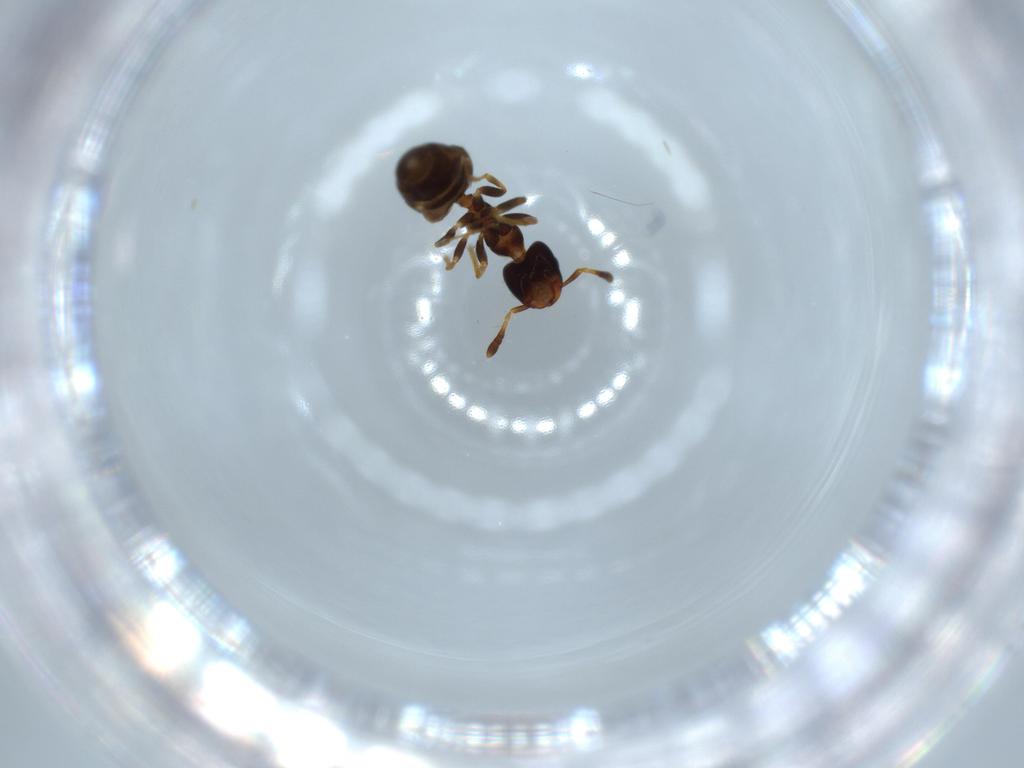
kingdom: Animalia
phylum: Arthropoda
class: Insecta
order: Hymenoptera
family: Formicidae
